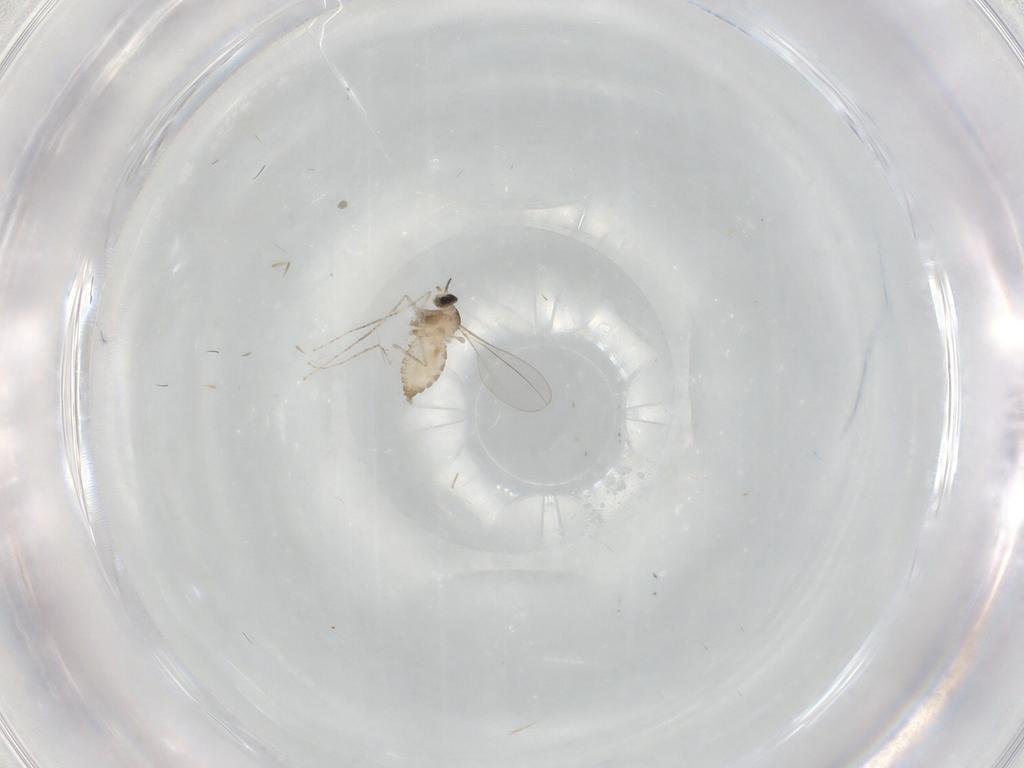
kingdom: Animalia
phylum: Arthropoda
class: Insecta
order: Diptera
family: Cecidomyiidae
